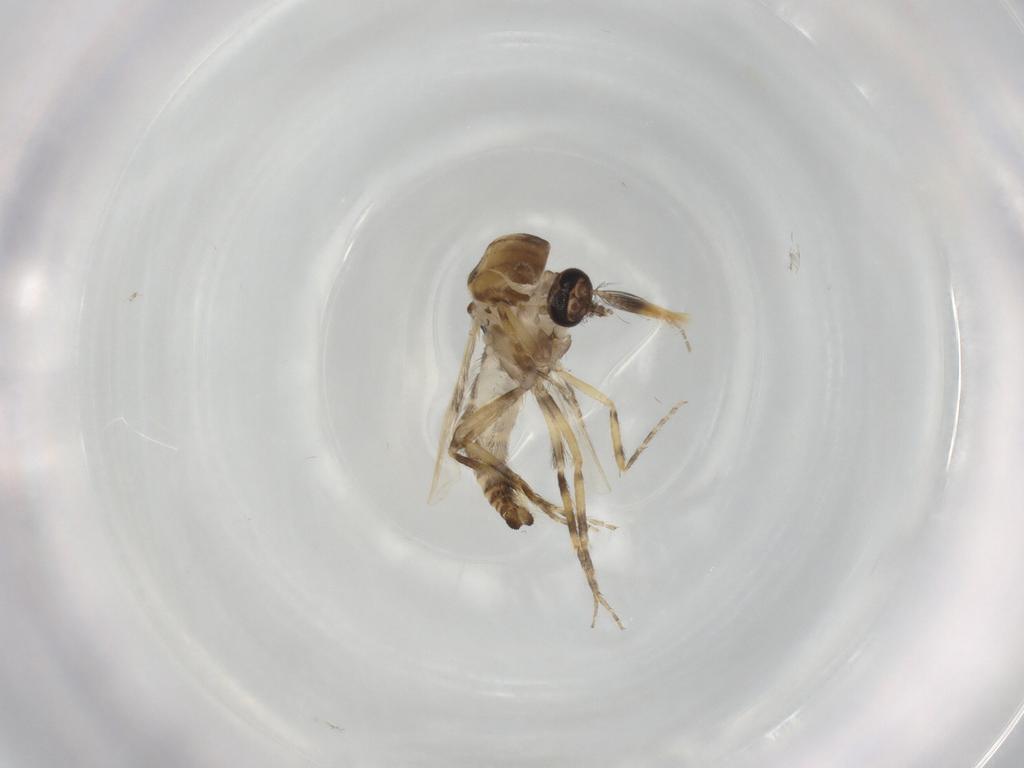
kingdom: Animalia
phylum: Arthropoda
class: Insecta
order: Diptera
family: Ceratopogonidae
